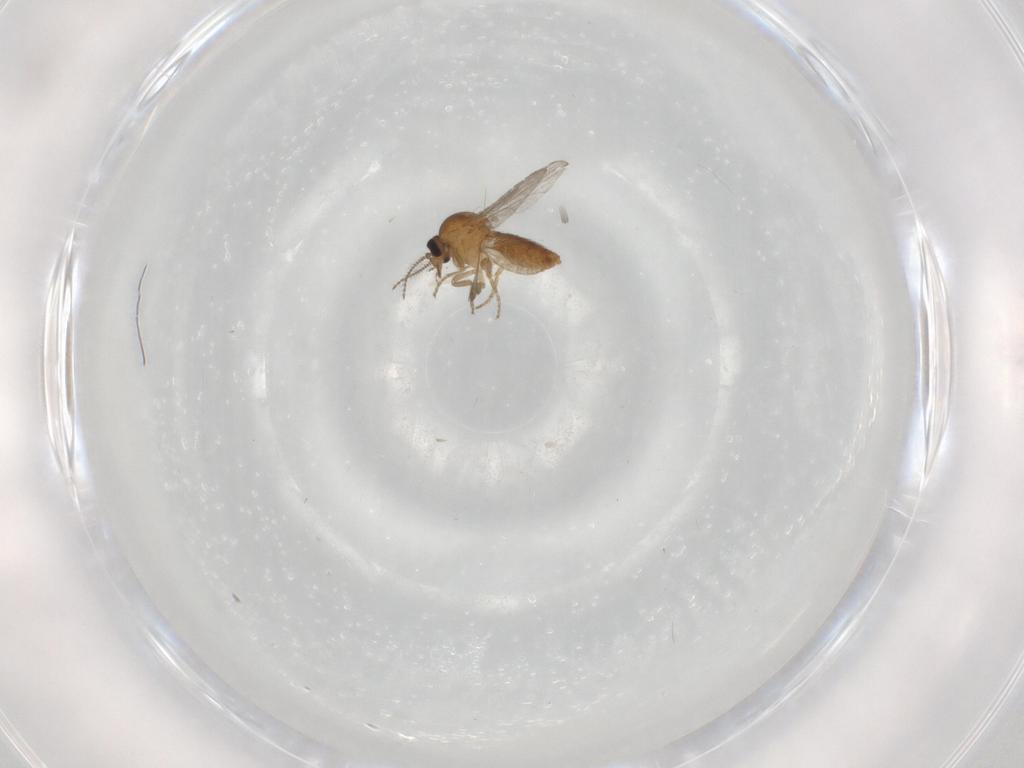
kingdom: Animalia
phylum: Arthropoda
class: Insecta
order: Diptera
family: Ceratopogonidae
